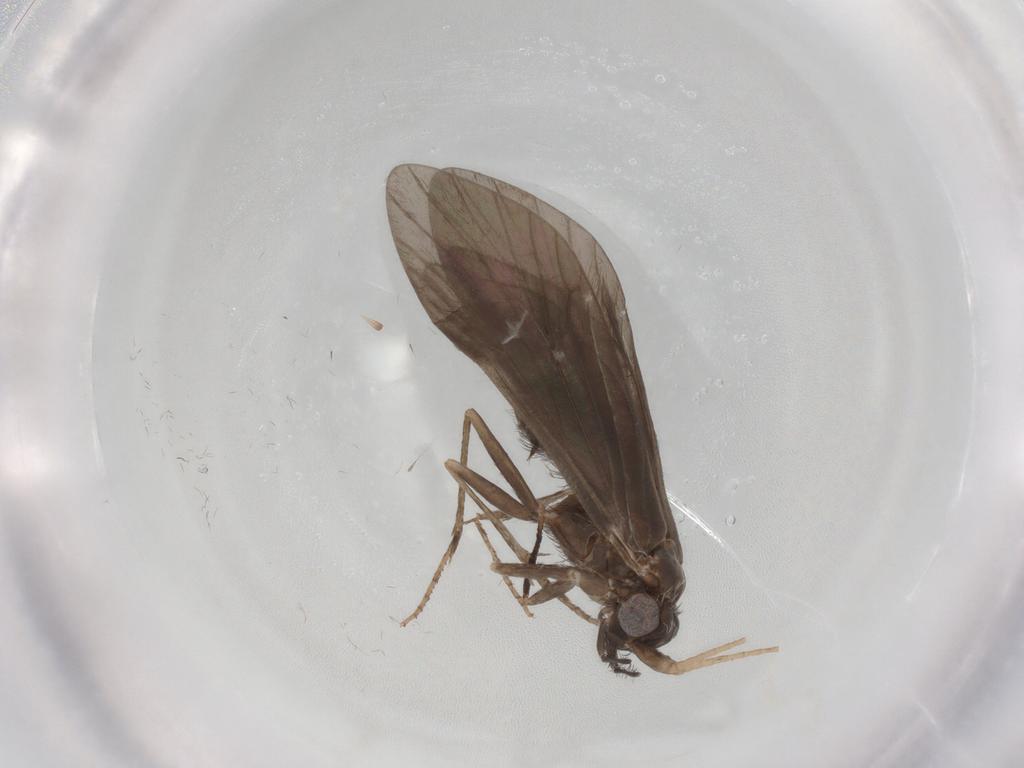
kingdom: Animalia
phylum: Arthropoda
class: Insecta
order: Trichoptera
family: Helicopsychidae
